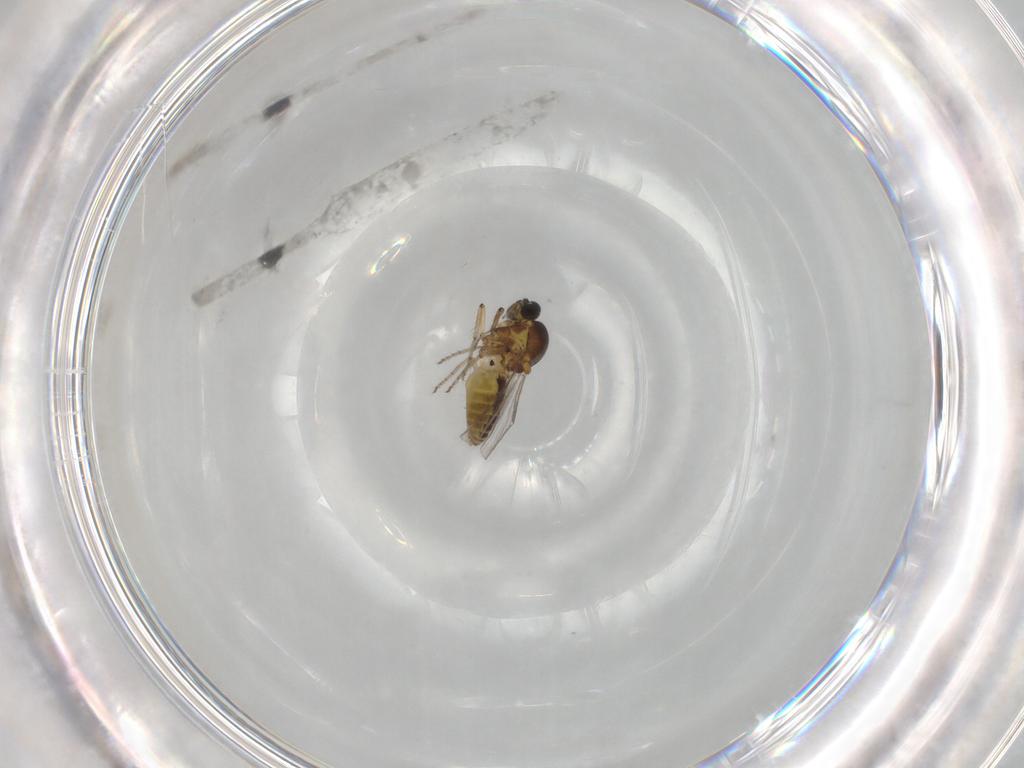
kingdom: Animalia
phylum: Arthropoda
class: Insecta
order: Diptera
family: Ceratopogonidae
